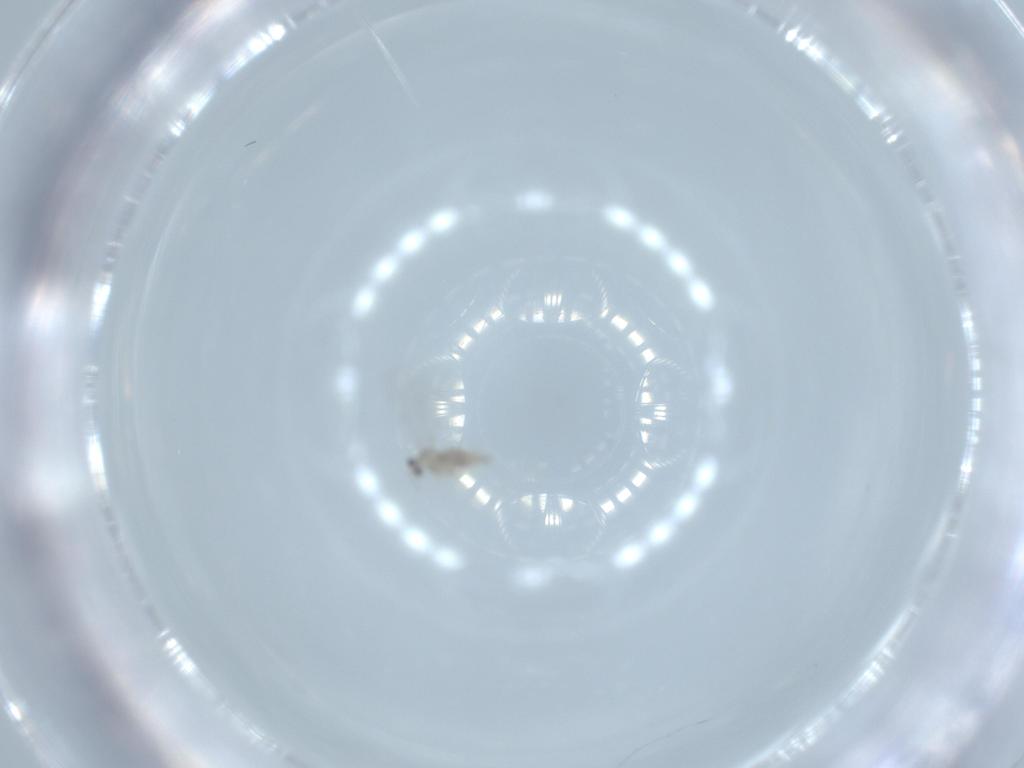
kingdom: Animalia
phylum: Arthropoda
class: Insecta
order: Diptera
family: Cecidomyiidae
